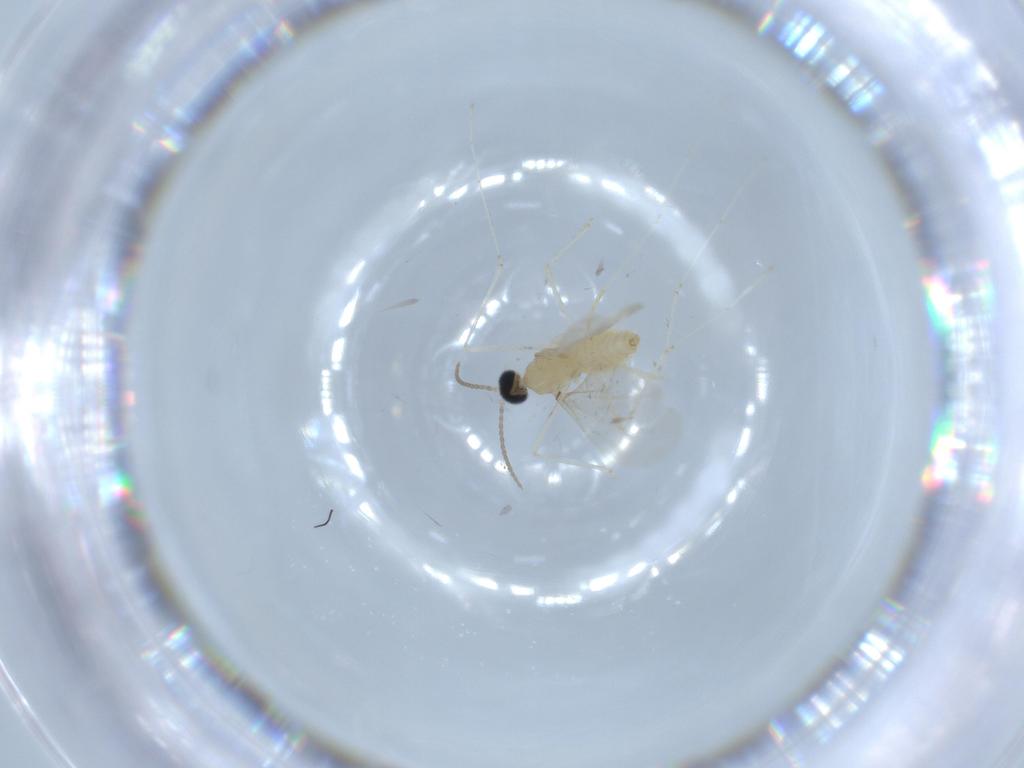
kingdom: Animalia
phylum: Arthropoda
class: Insecta
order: Diptera
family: Cecidomyiidae
